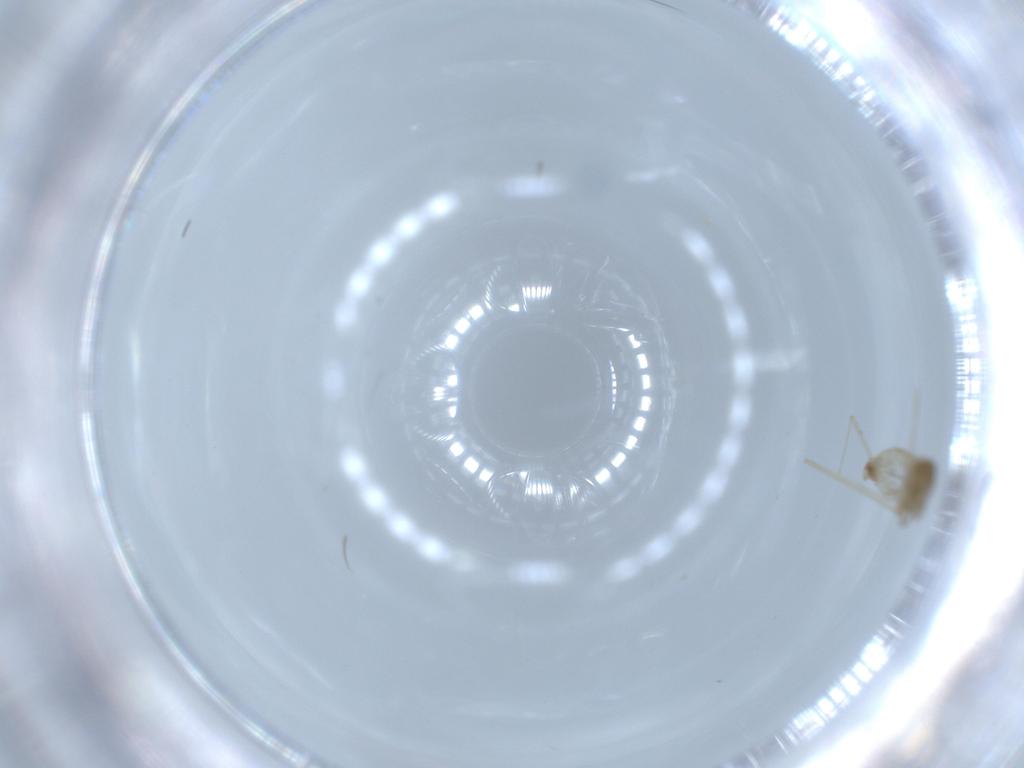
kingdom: Animalia
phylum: Arthropoda
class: Insecta
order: Diptera
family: Cecidomyiidae
